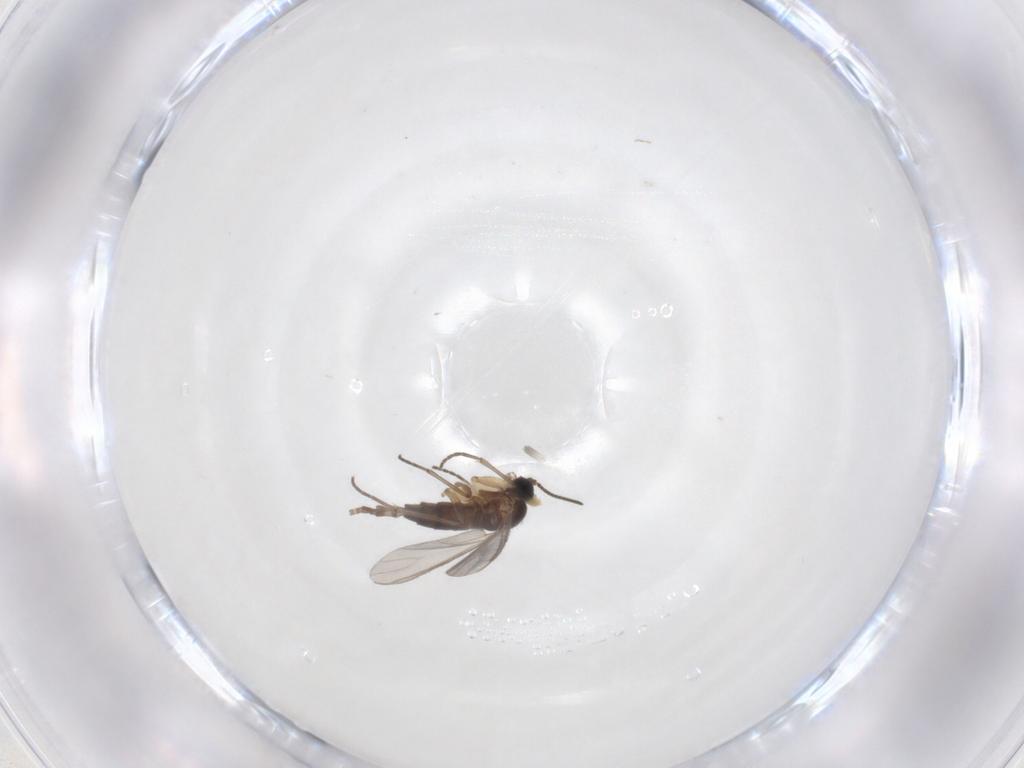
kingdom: Animalia
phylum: Arthropoda
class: Insecta
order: Diptera
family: Sciaridae
